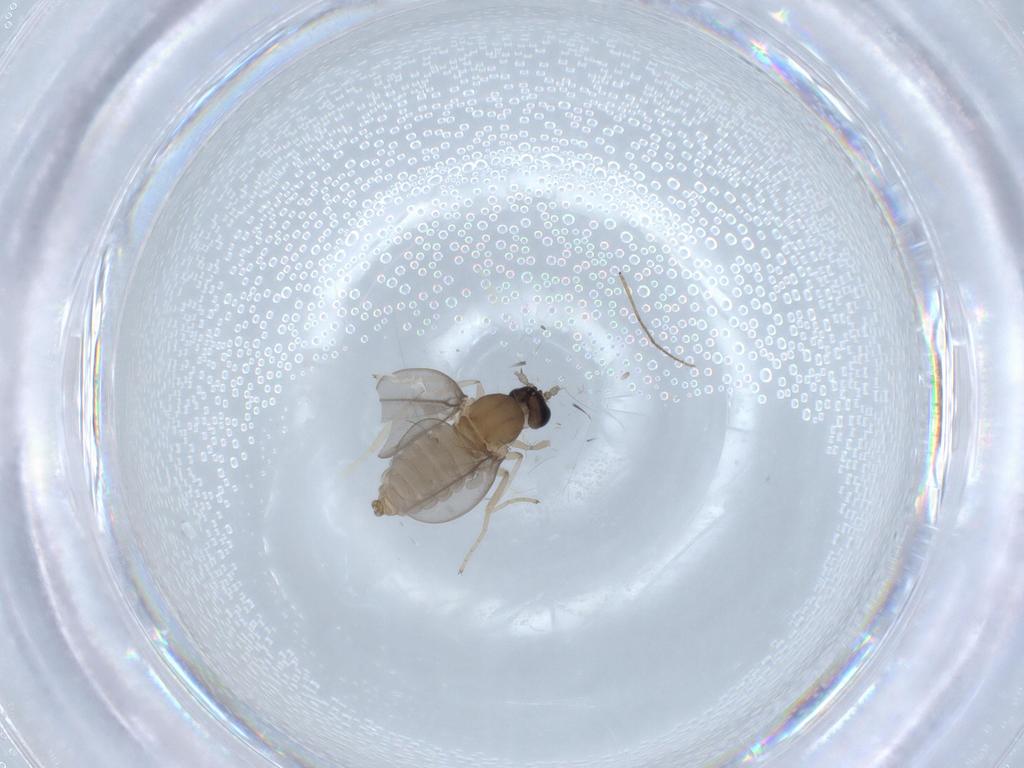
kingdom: Animalia
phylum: Arthropoda
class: Insecta
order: Diptera
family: Cecidomyiidae
